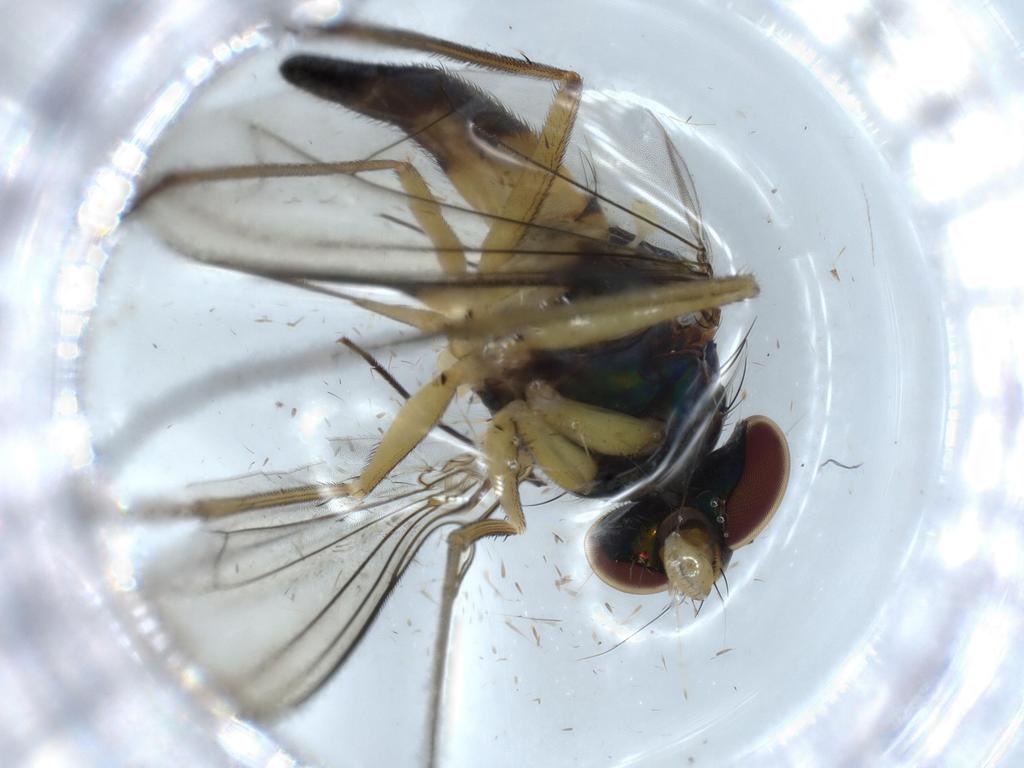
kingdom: Animalia
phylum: Arthropoda
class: Insecta
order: Diptera
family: Dolichopodidae
